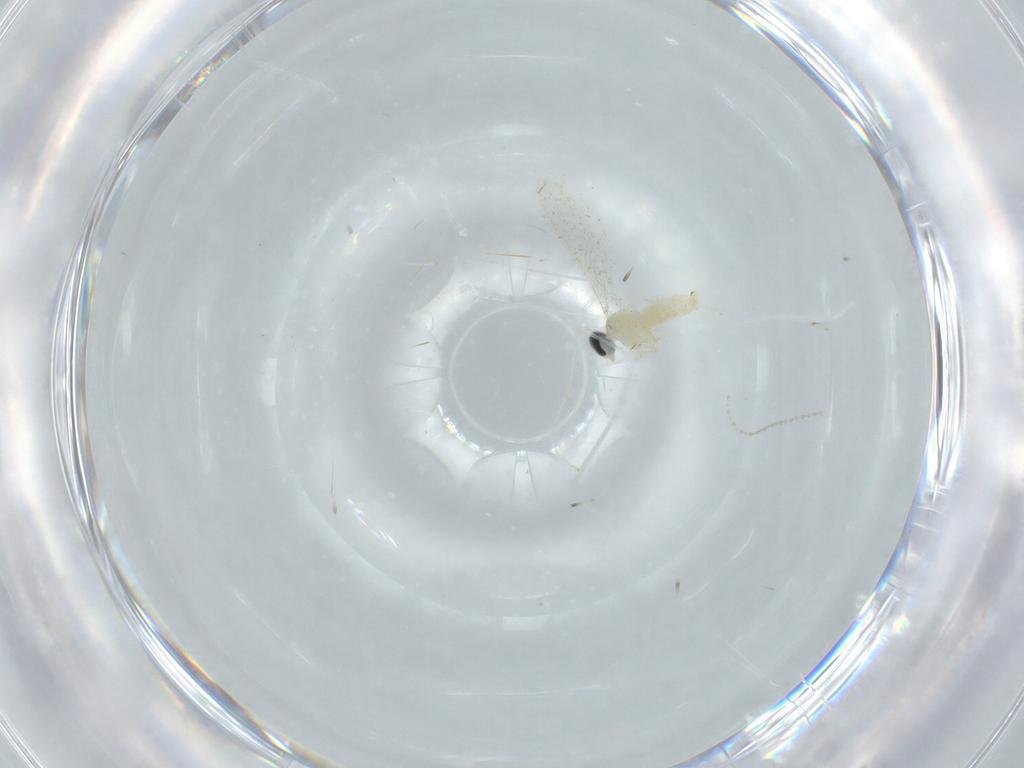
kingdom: Animalia
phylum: Arthropoda
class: Insecta
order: Diptera
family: Cecidomyiidae
